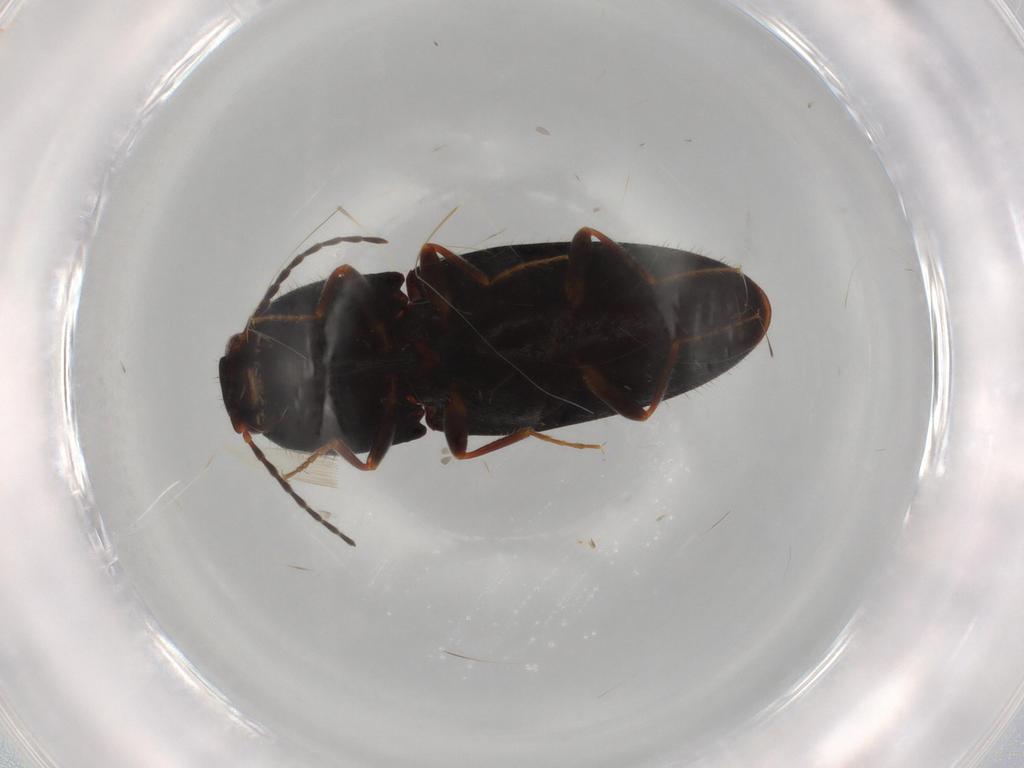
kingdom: Animalia
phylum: Arthropoda
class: Insecta
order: Coleoptera
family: Elateridae
